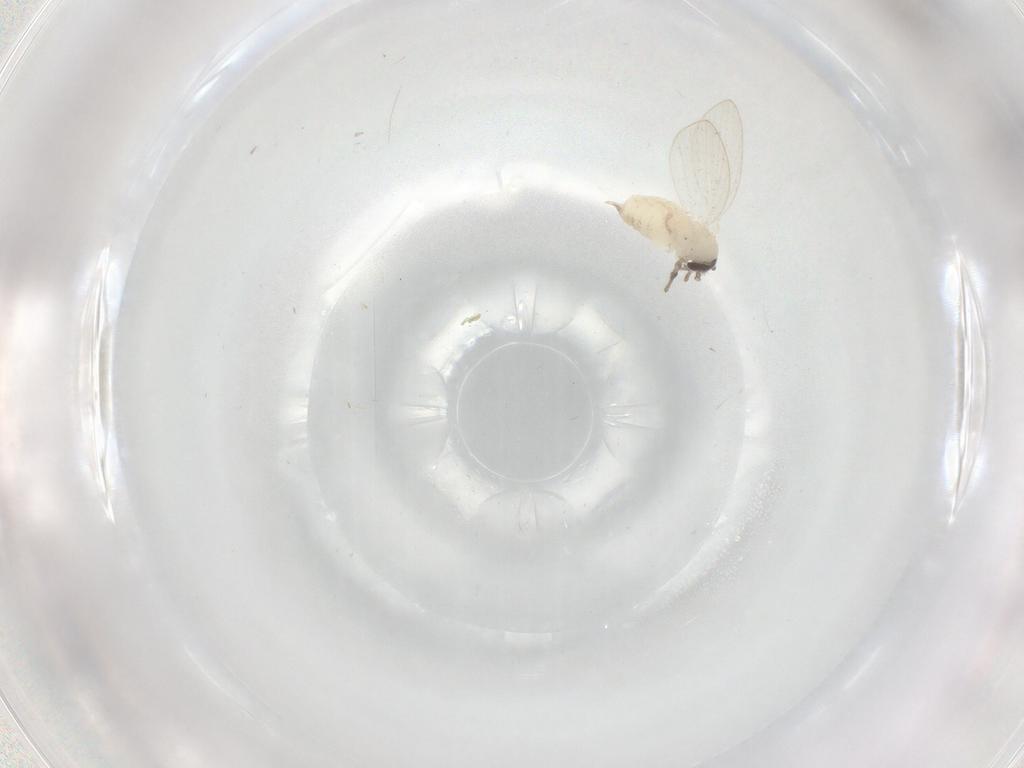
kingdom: Animalia
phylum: Arthropoda
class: Insecta
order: Diptera
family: Psychodidae
